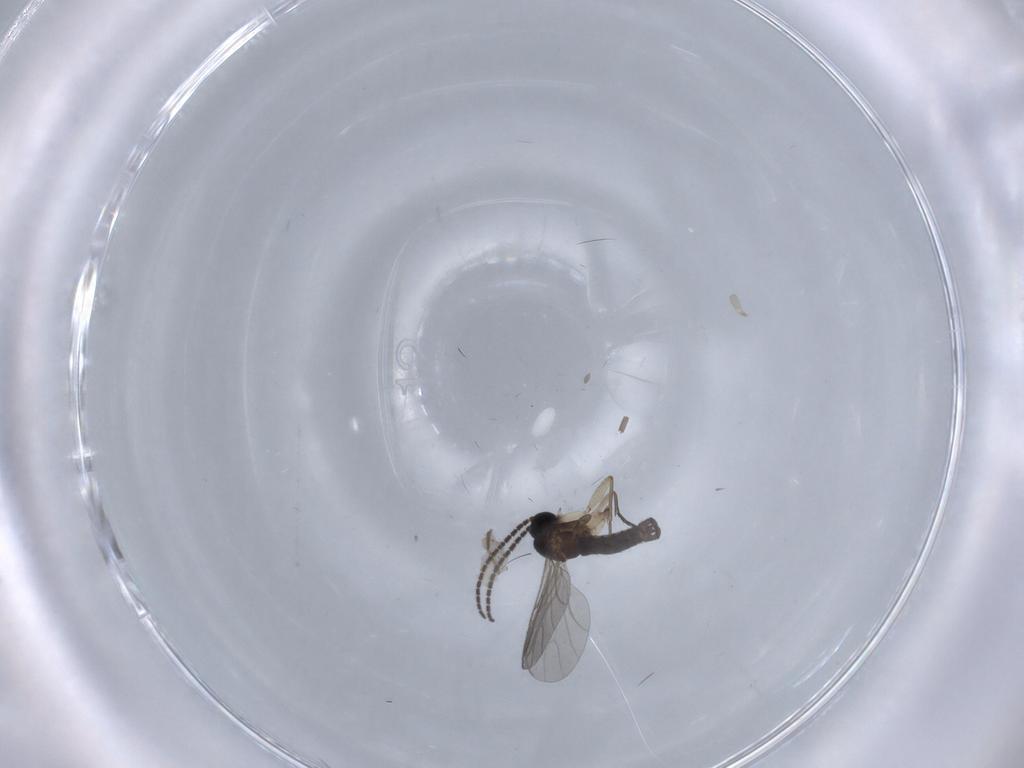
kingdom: Animalia
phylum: Arthropoda
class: Insecta
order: Diptera
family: Sciaridae
